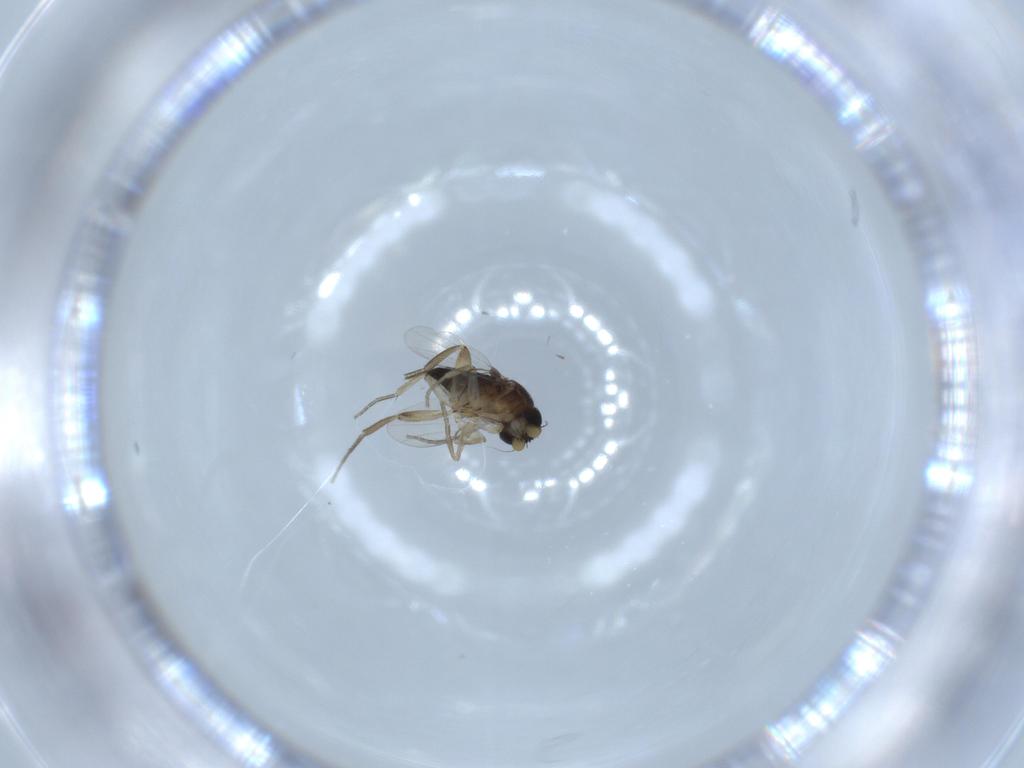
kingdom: Animalia
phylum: Arthropoda
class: Insecta
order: Diptera
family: Phoridae
